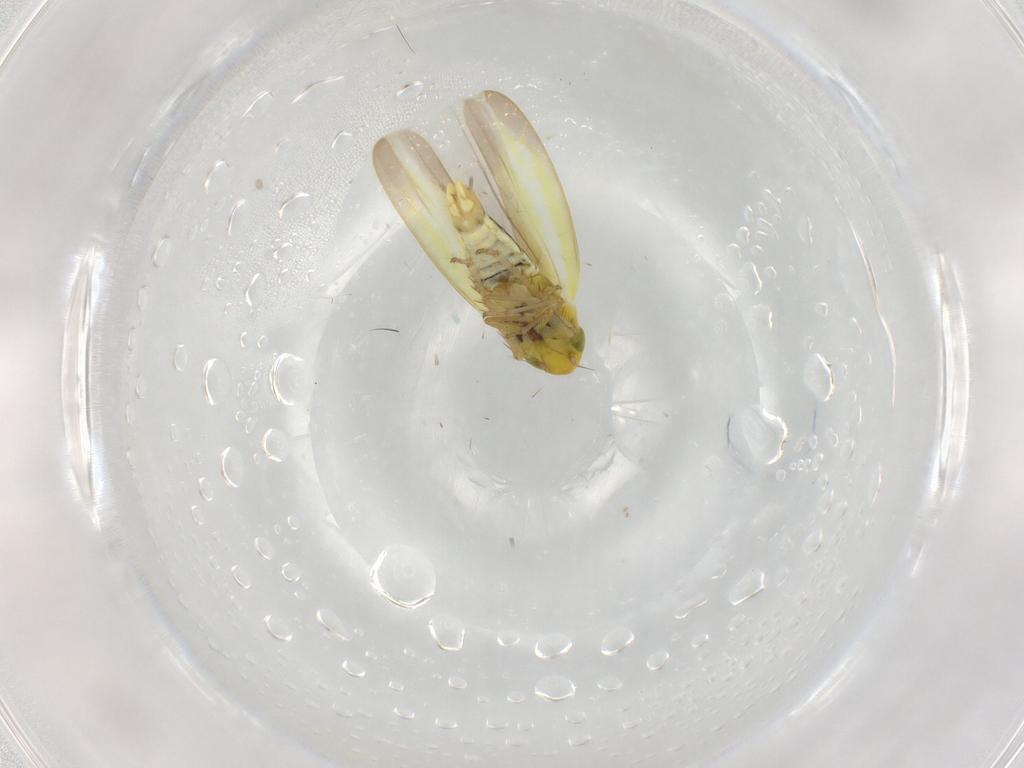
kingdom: Animalia
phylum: Arthropoda
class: Insecta
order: Hemiptera
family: Cicadellidae
